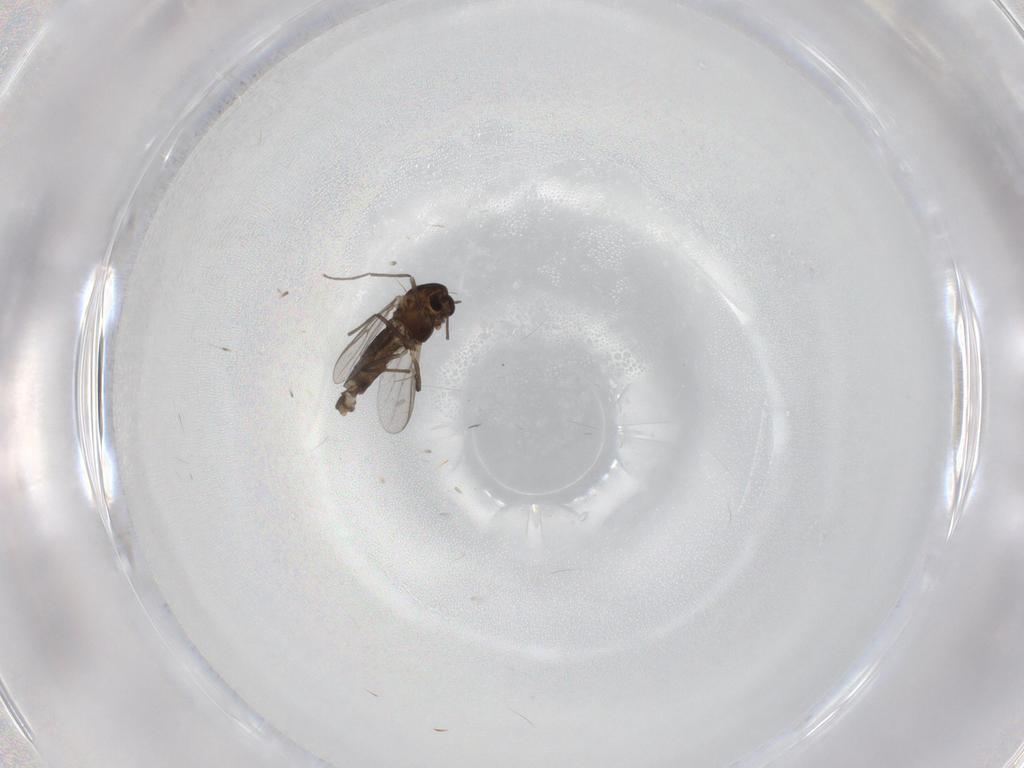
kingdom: Animalia
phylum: Arthropoda
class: Insecta
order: Diptera
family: Chironomidae
